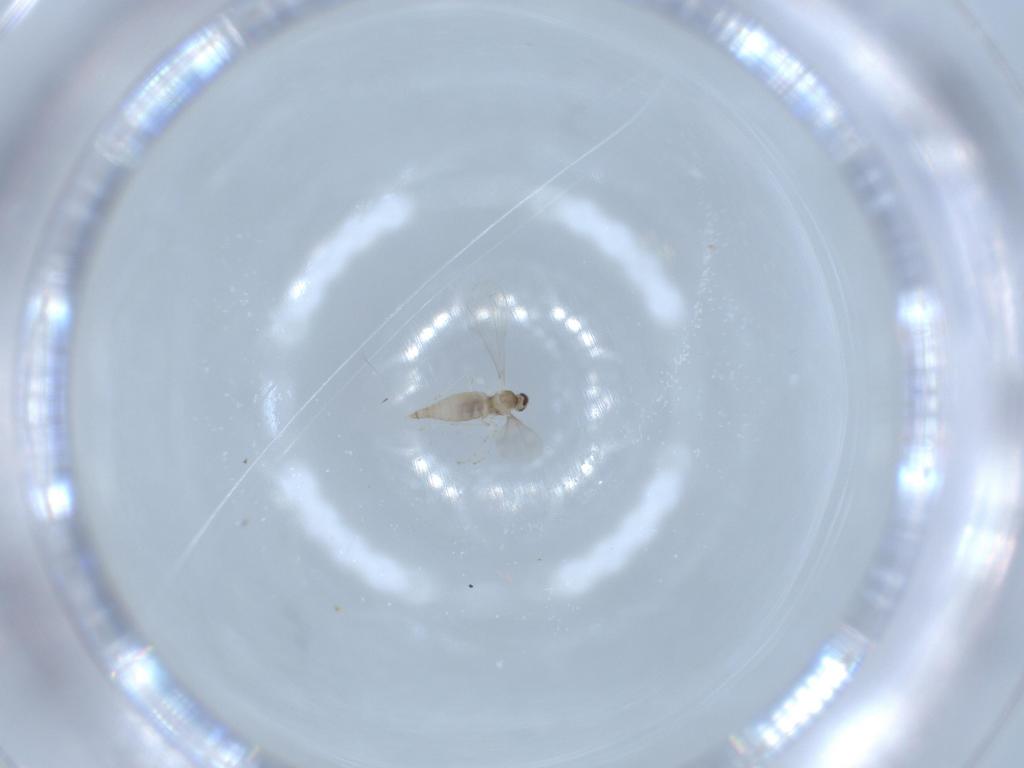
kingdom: Animalia
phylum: Arthropoda
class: Insecta
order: Diptera
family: Cecidomyiidae
